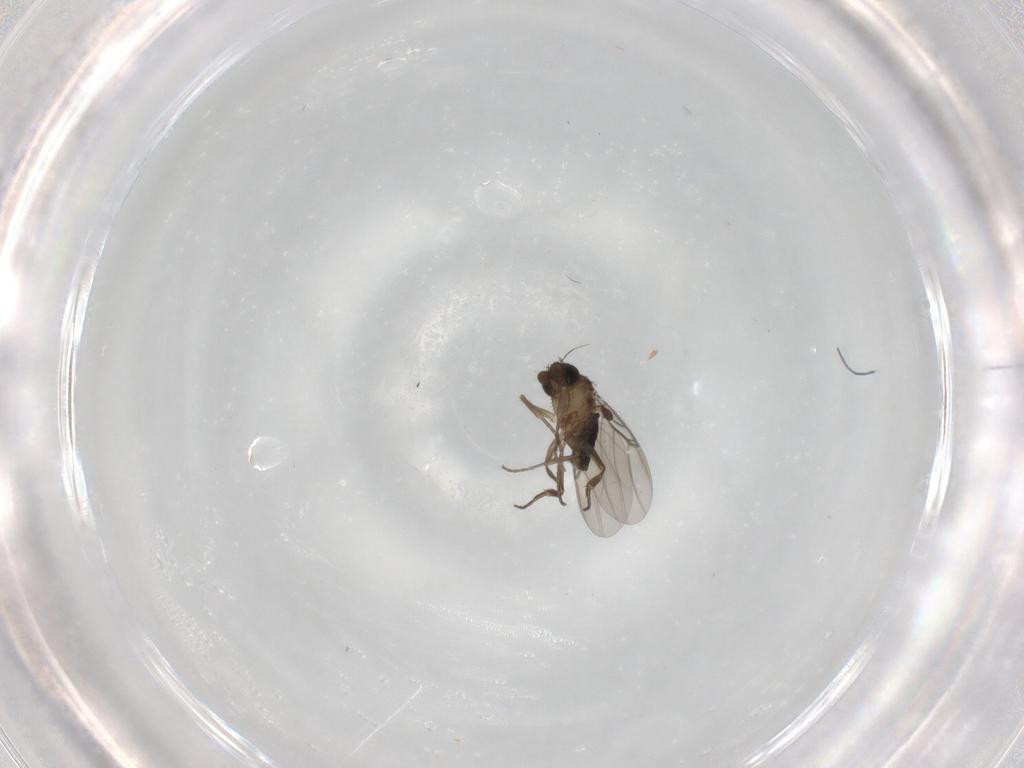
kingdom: Animalia
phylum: Arthropoda
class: Insecta
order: Diptera
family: Phoridae
